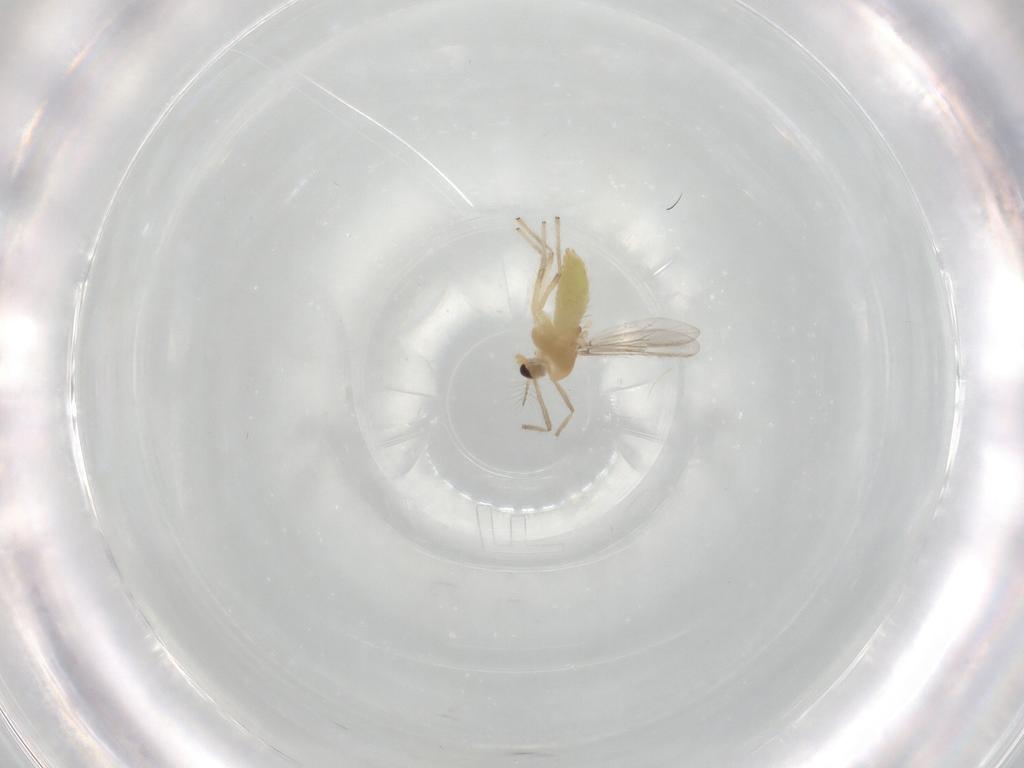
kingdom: Animalia
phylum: Arthropoda
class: Insecta
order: Diptera
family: Chironomidae
